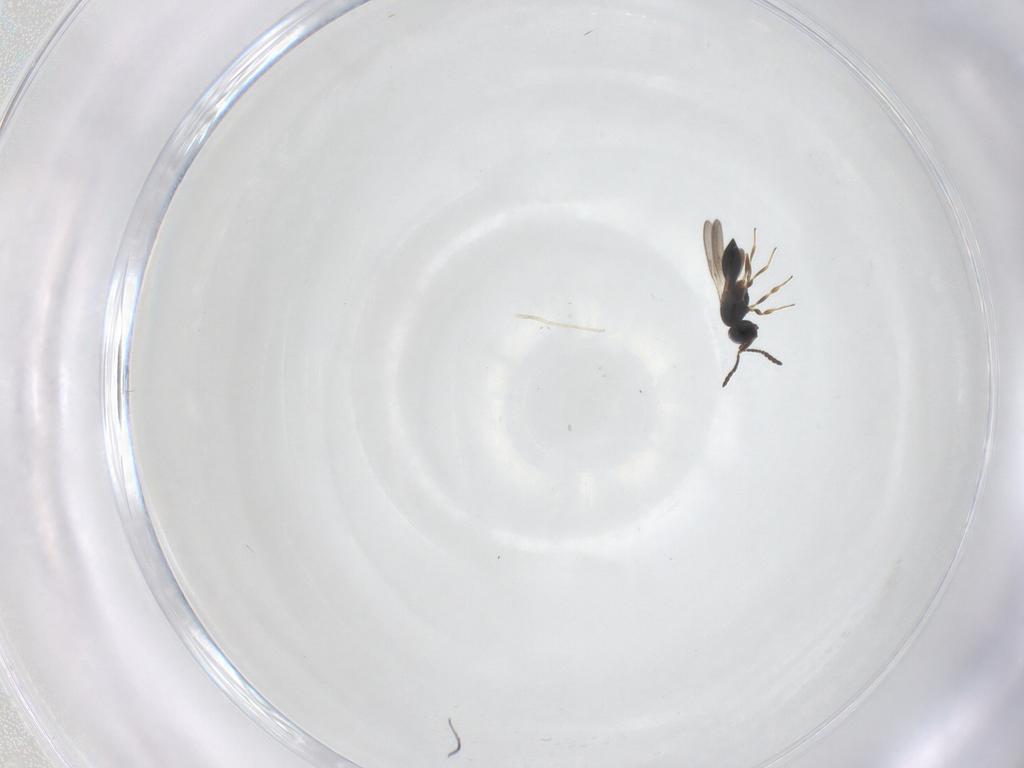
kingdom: Animalia
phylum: Arthropoda
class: Insecta
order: Hymenoptera
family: Scelionidae
